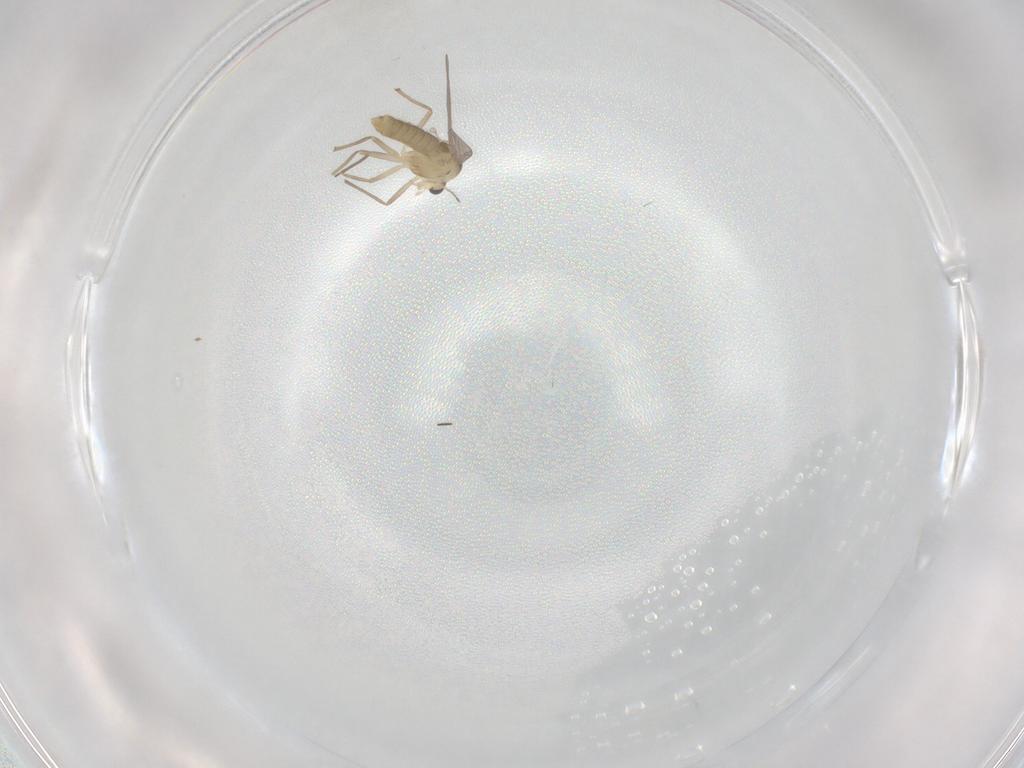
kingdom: Animalia
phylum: Arthropoda
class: Insecta
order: Diptera
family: Chironomidae
